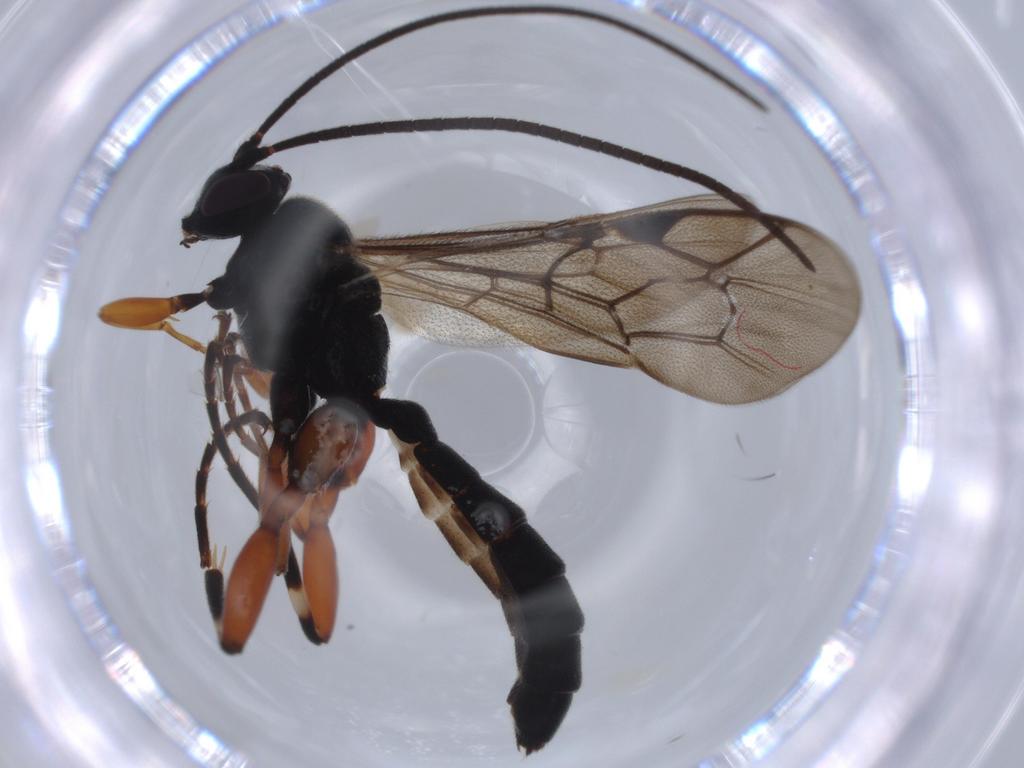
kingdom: Animalia
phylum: Arthropoda
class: Insecta
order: Hymenoptera
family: Ichneumonidae
